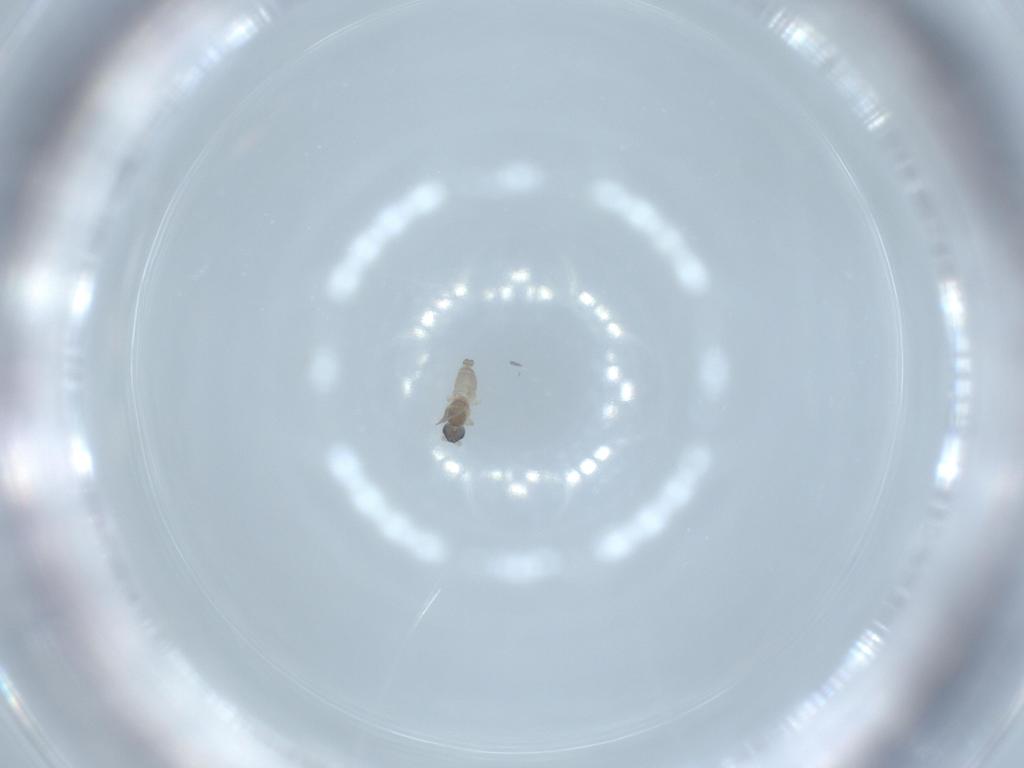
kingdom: Animalia
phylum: Arthropoda
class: Insecta
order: Diptera
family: Cecidomyiidae
